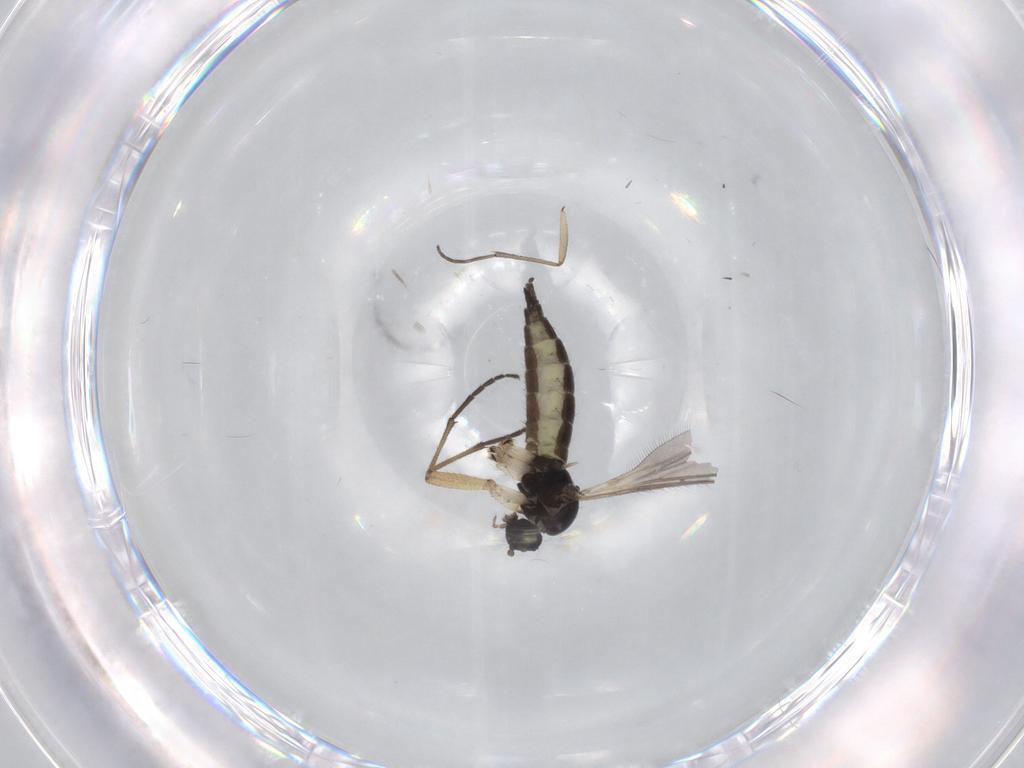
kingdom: Animalia
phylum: Arthropoda
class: Insecta
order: Diptera
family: Sciaridae
